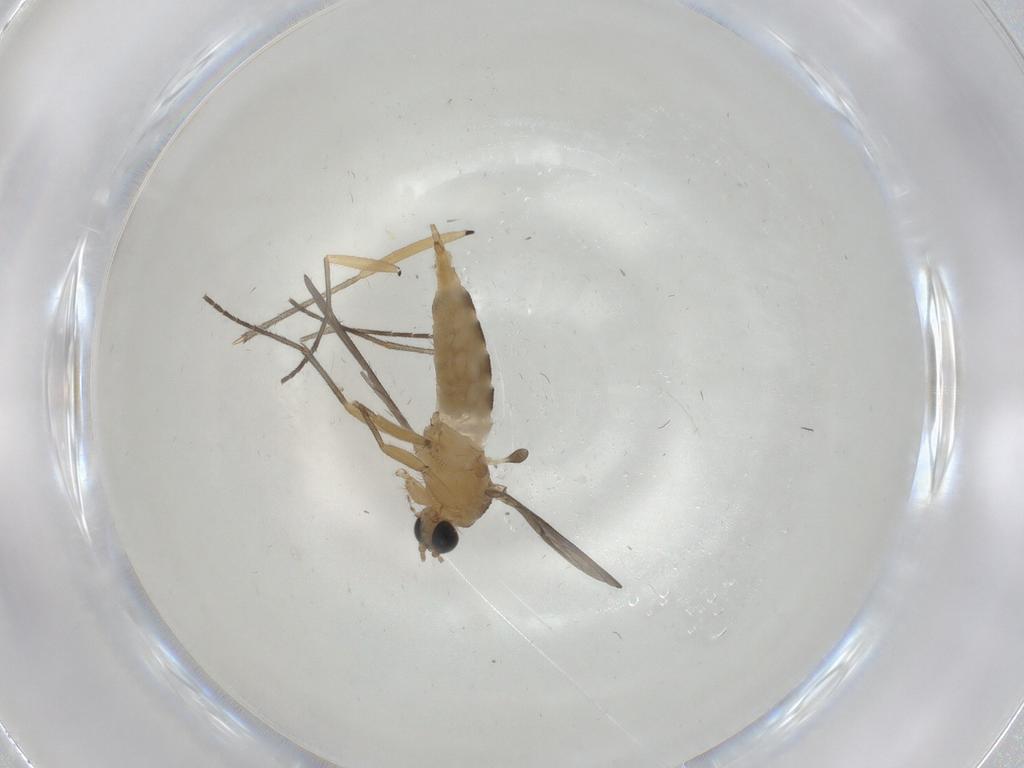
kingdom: Animalia
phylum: Arthropoda
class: Insecta
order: Diptera
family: Sciaridae
